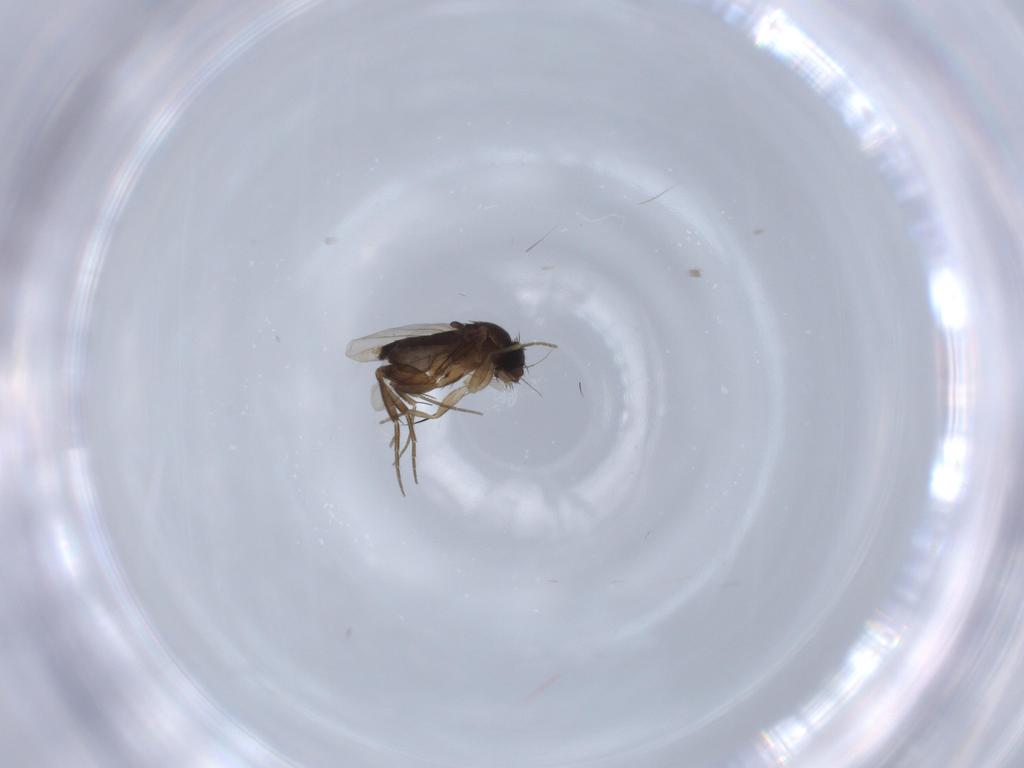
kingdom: Animalia
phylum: Arthropoda
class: Insecta
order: Diptera
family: Phoridae
